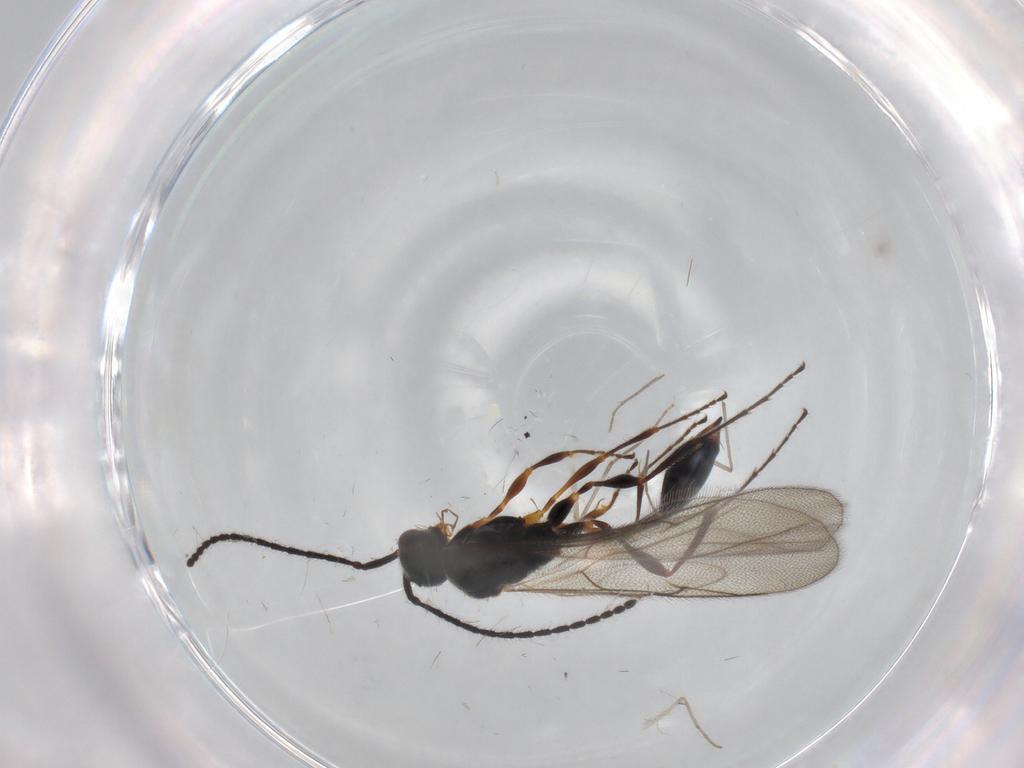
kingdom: Animalia
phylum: Arthropoda
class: Insecta
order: Hymenoptera
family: Diapriidae
